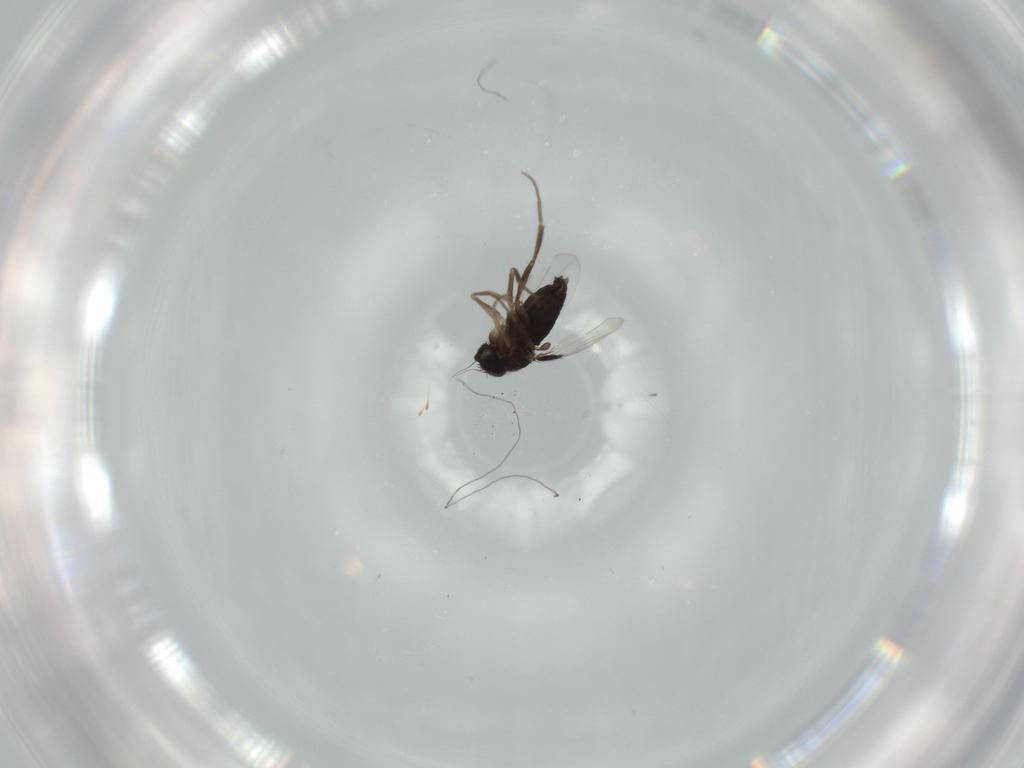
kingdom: Animalia
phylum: Arthropoda
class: Insecta
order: Diptera
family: Phoridae
